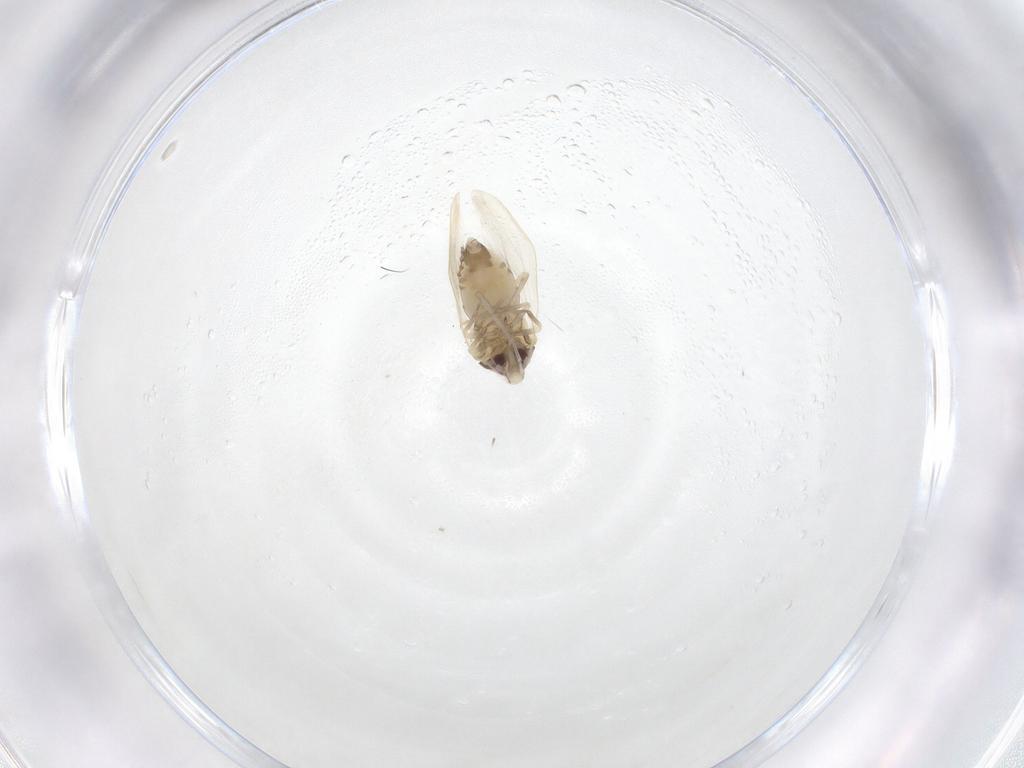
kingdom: Animalia
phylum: Arthropoda
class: Insecta
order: Hemiptera
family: Aleyrodidae
